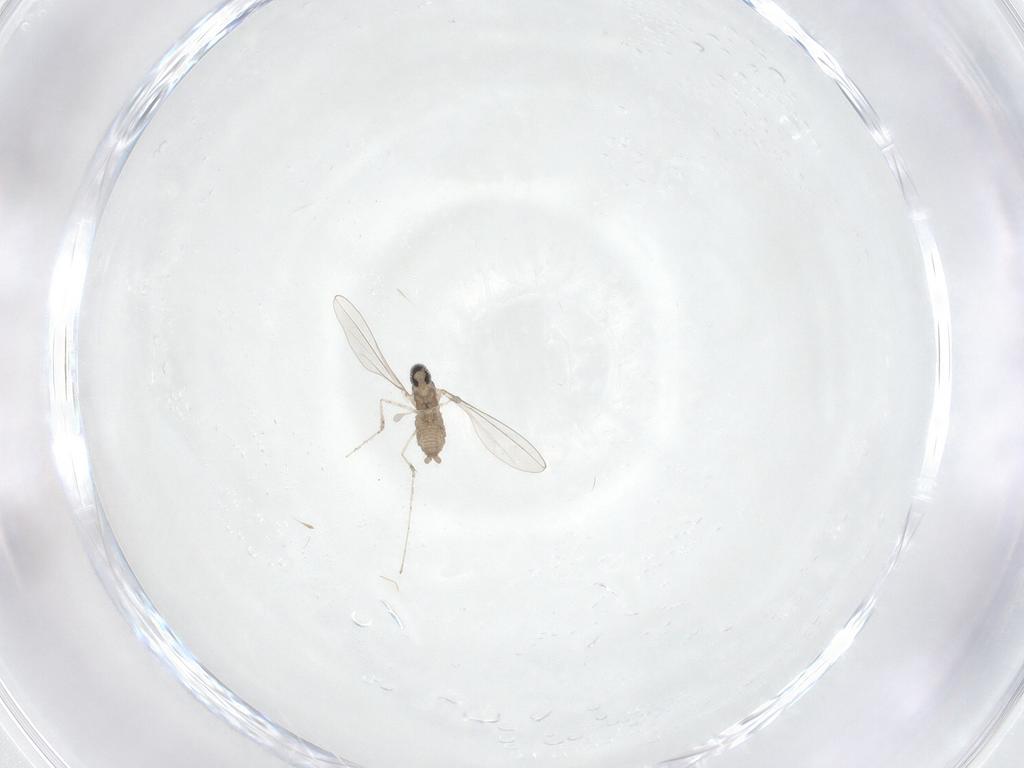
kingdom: Animalia
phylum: Arthropoda
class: Insecta
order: Diptera
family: Cecidomyiidae
